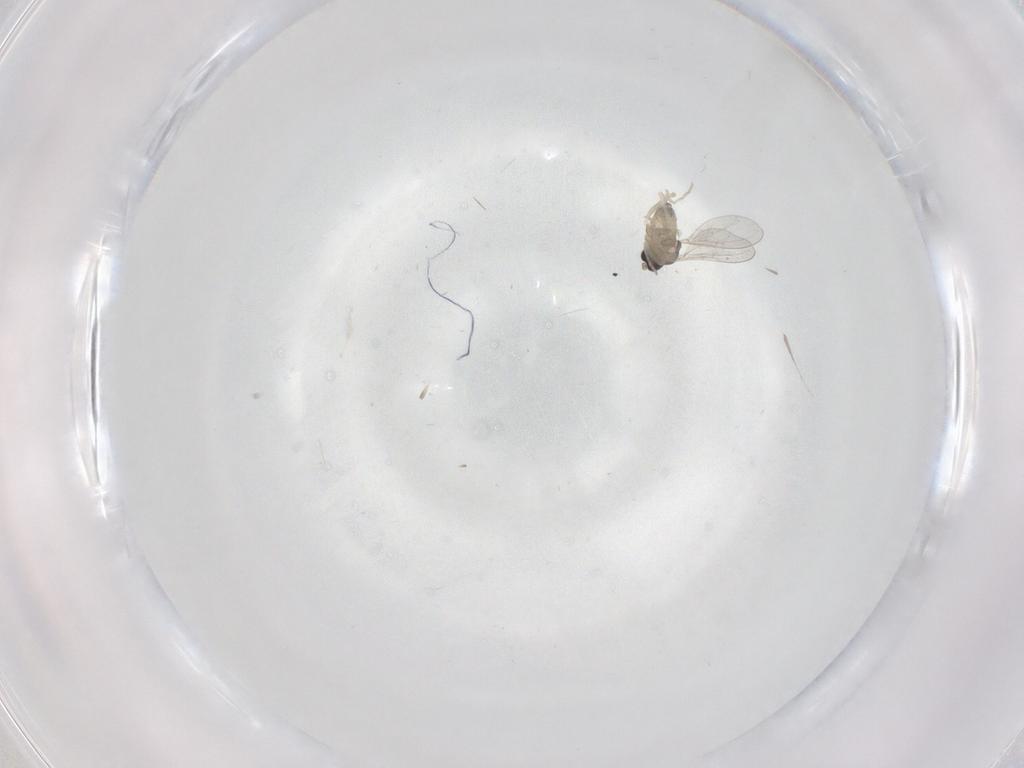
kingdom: Animalia
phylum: Arthropoda
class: Insecta
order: Diptera
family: Cecidomyiidae
